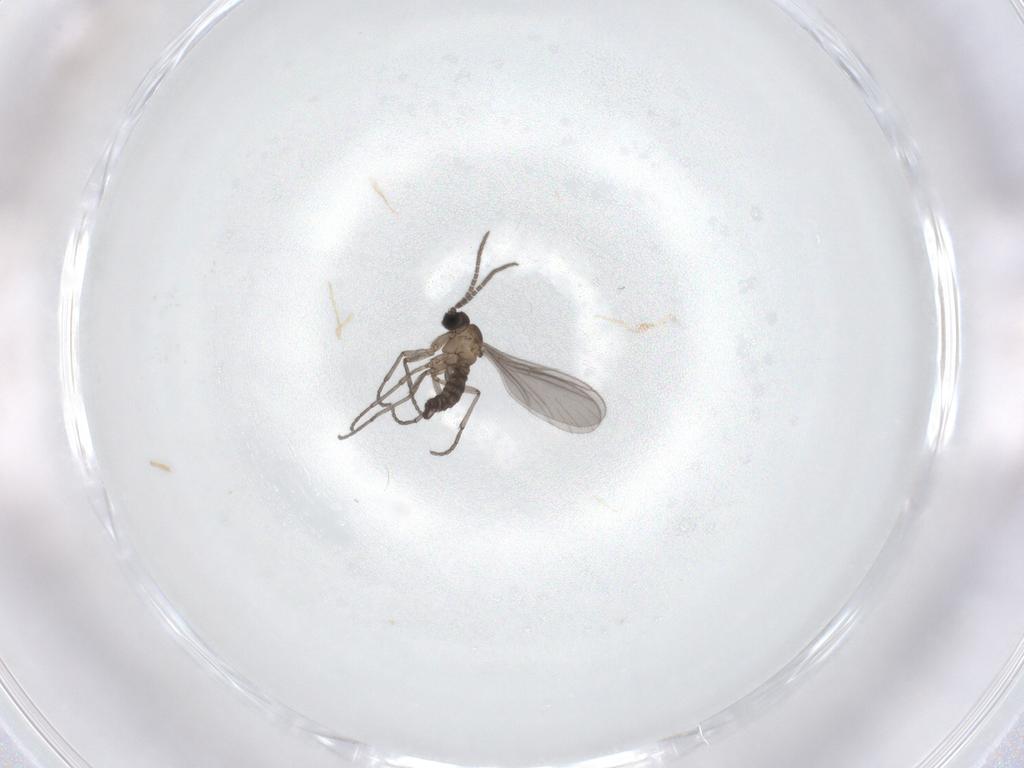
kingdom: Animalia
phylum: Arthropoda
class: Insecta
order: Diptera
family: Sciaridae
